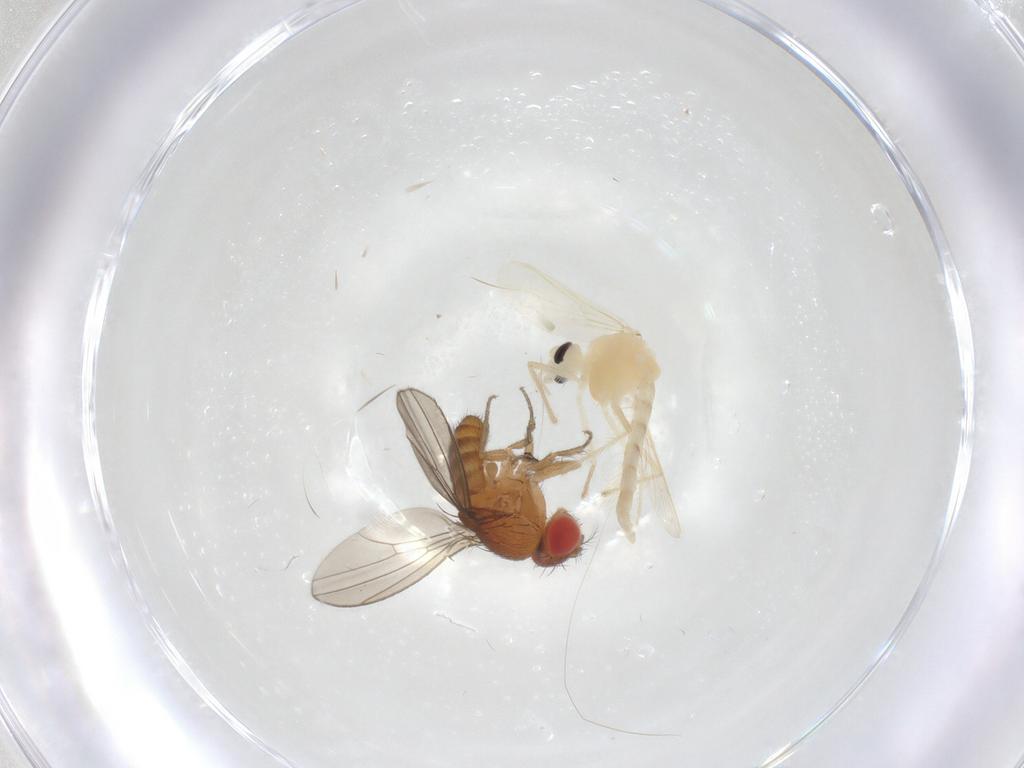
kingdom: Animalia
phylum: Arthropoda
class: Insecta
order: Diptera
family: Drosophilidae
